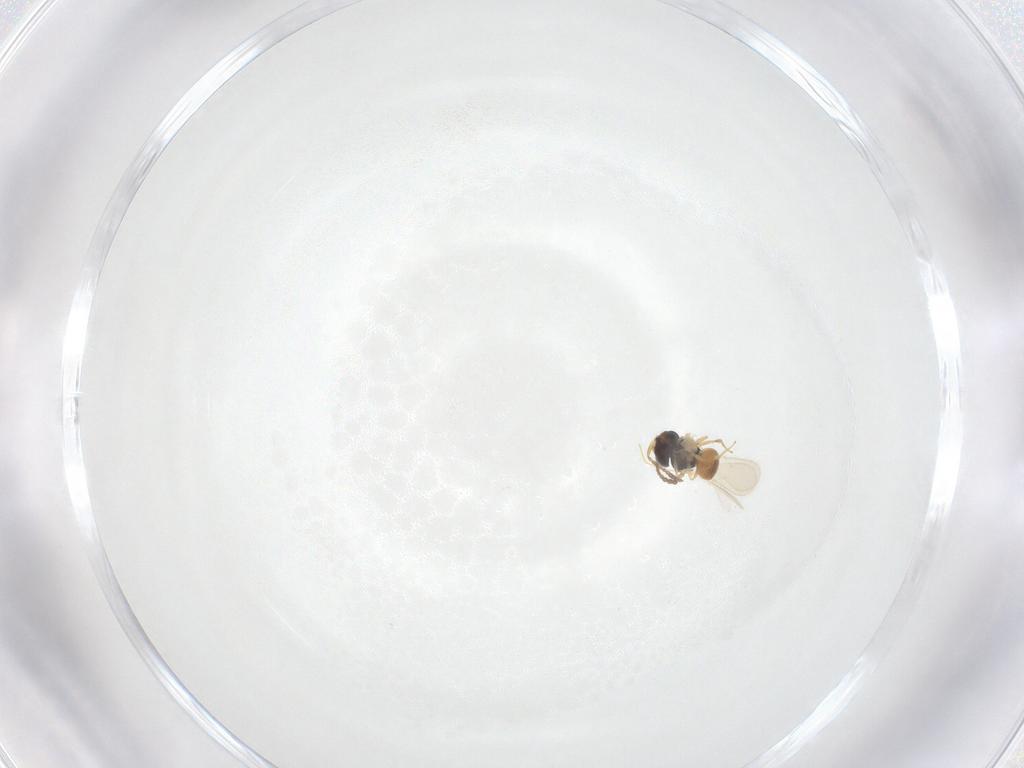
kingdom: Animalia
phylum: Arthropoda
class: Insecta
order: Hymenoptera
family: Scelionidae
